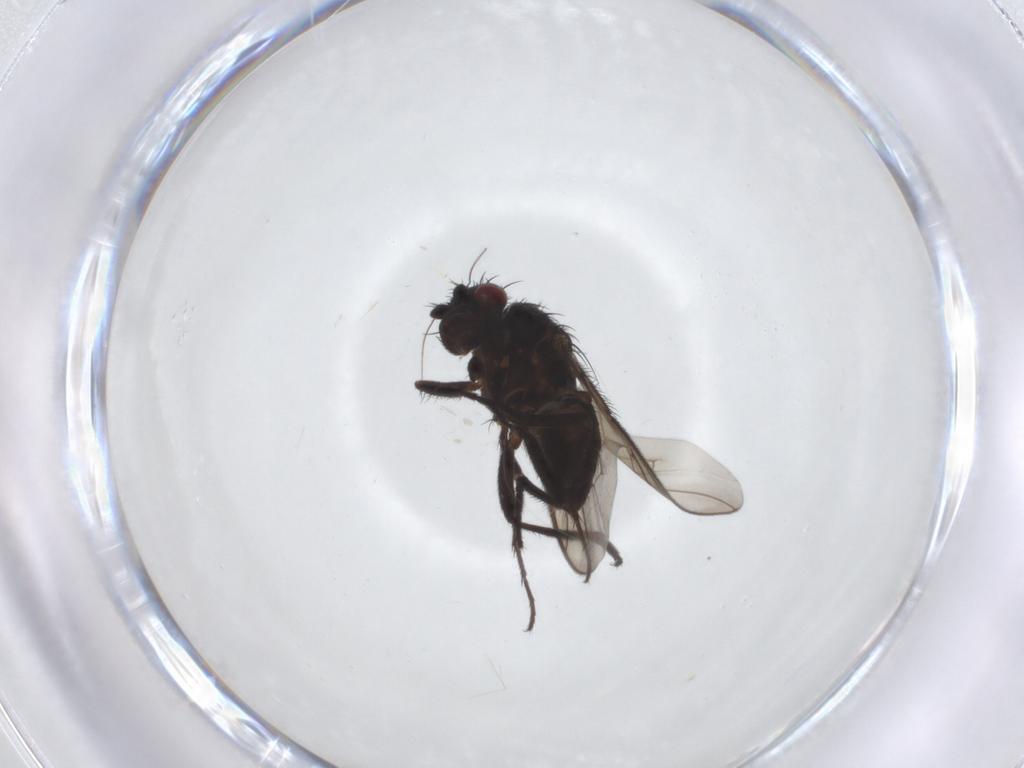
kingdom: Animalia
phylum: Arthropoda
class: Insecta
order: Diptera
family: Sphaeroceridae
